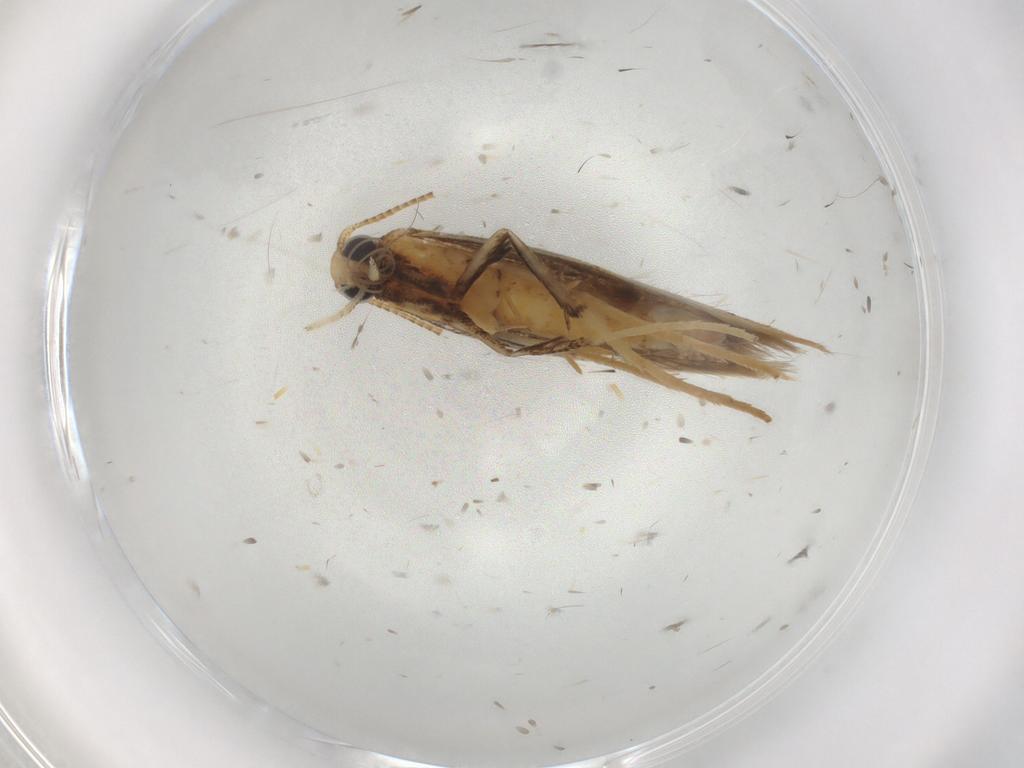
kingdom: Animalia
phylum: Arthropoda
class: Insecta
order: Lepidoptera
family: Gracillariidae
